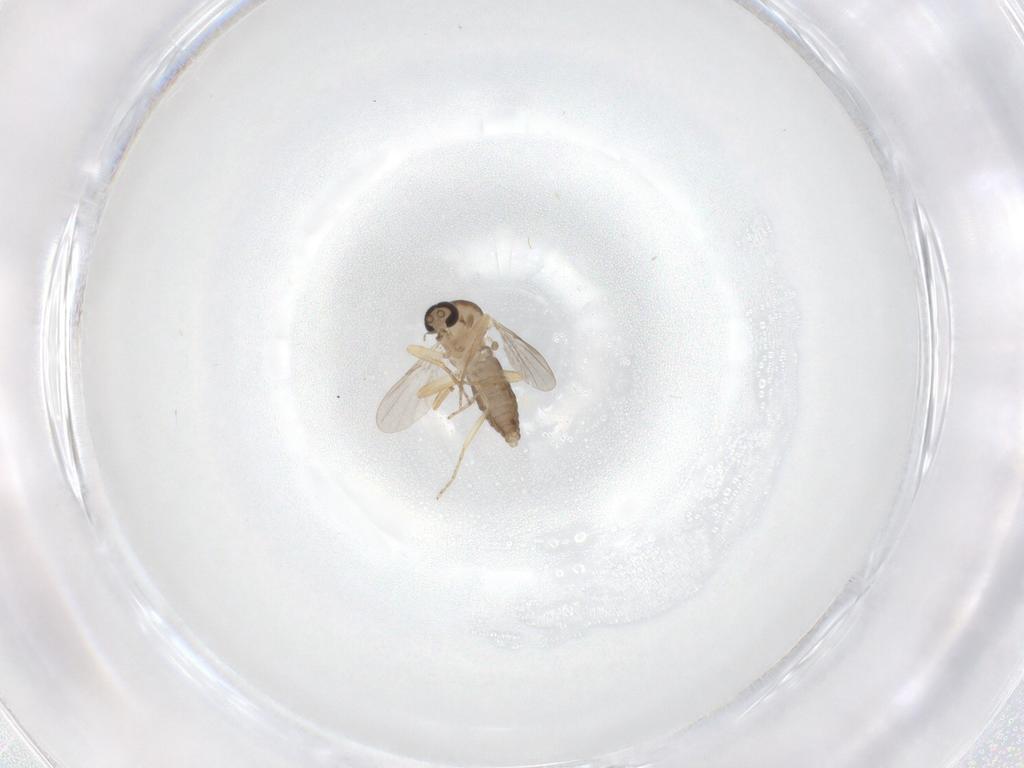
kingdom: Animalia
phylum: Arthropoda
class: Insecta
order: Diptera
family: Ceratopogonidae
